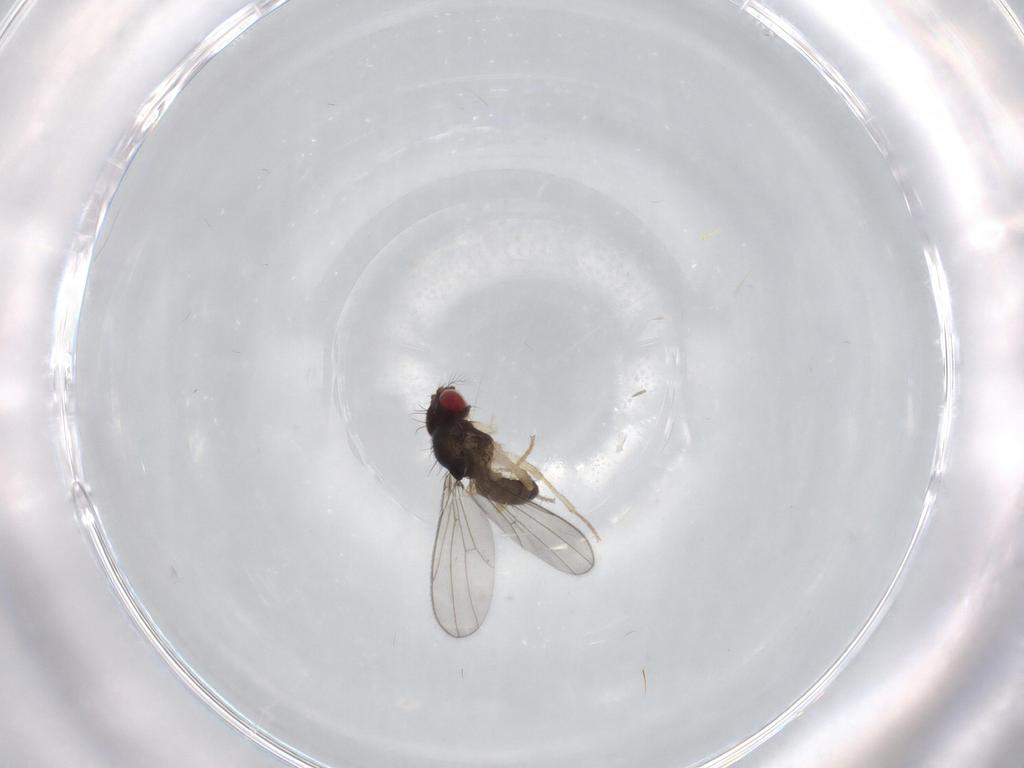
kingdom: Animalia
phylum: Arthropoda
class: Insecta
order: Diptera
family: Drosophilidae
